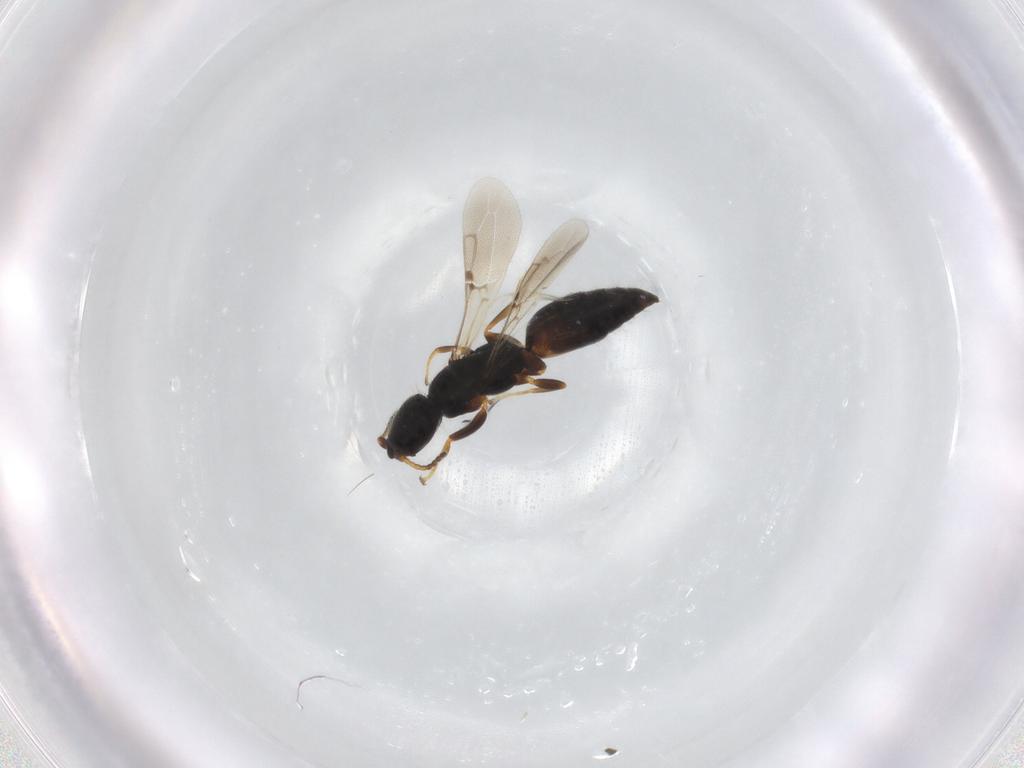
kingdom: Animalia
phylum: Arthropoda
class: Insecta
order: Hymenoptera
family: Bethylidae
